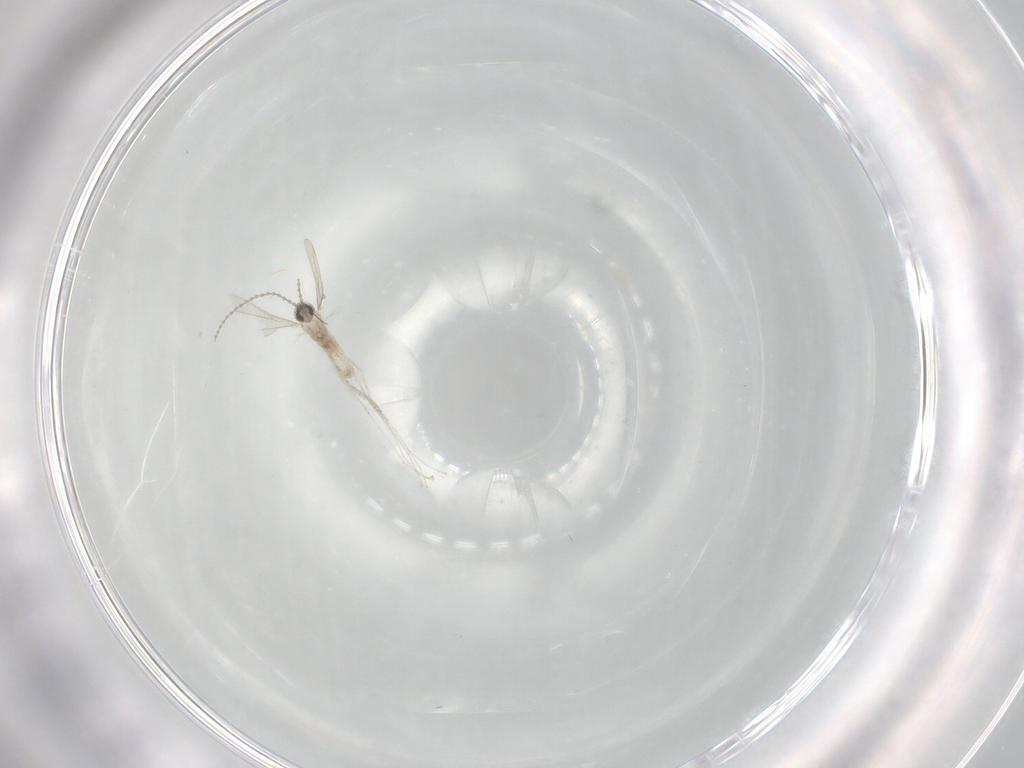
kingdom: Animalia
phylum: Arthropoda
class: Insecta
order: Diptera
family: Cecidomyiidae
